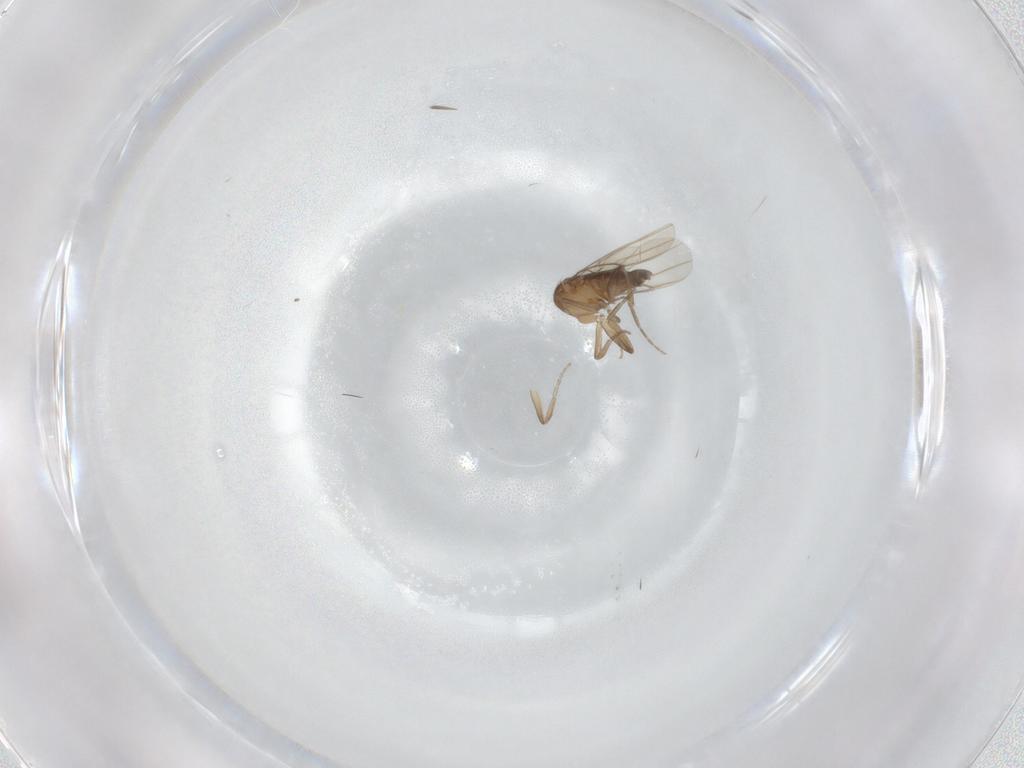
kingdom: Animalia
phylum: Arthropoda
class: Insecta
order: Diptera
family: Phoridae
